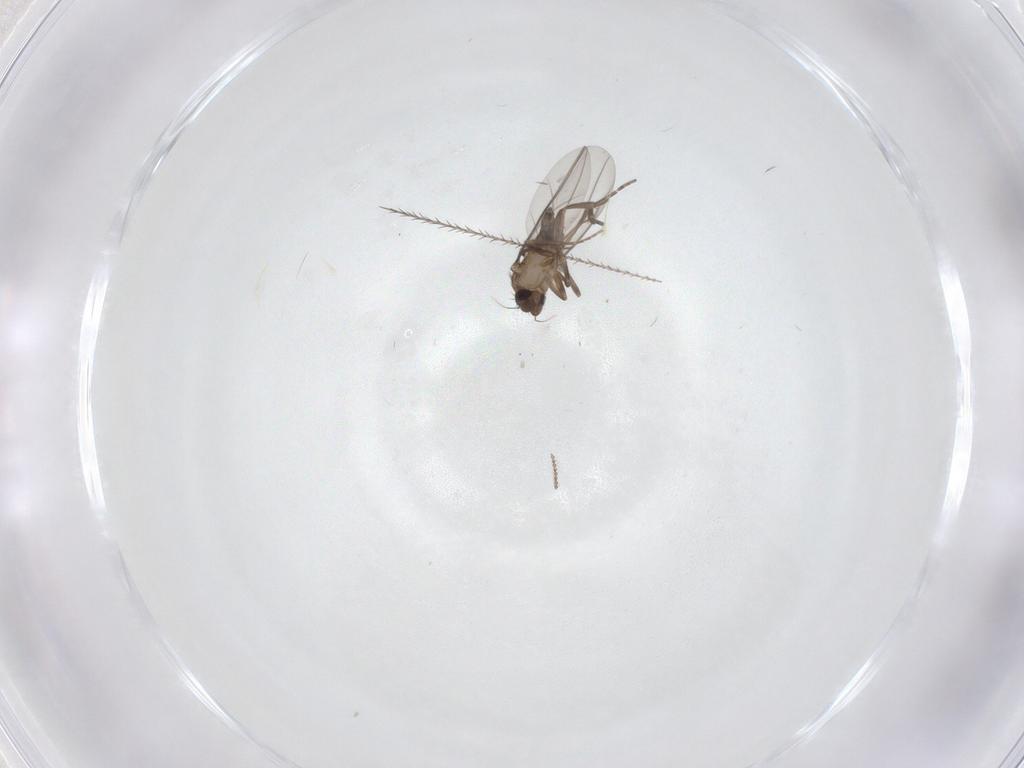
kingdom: Animalia
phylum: Arthropoda
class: Insecta
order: Diptera
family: Cecidomyiidae
